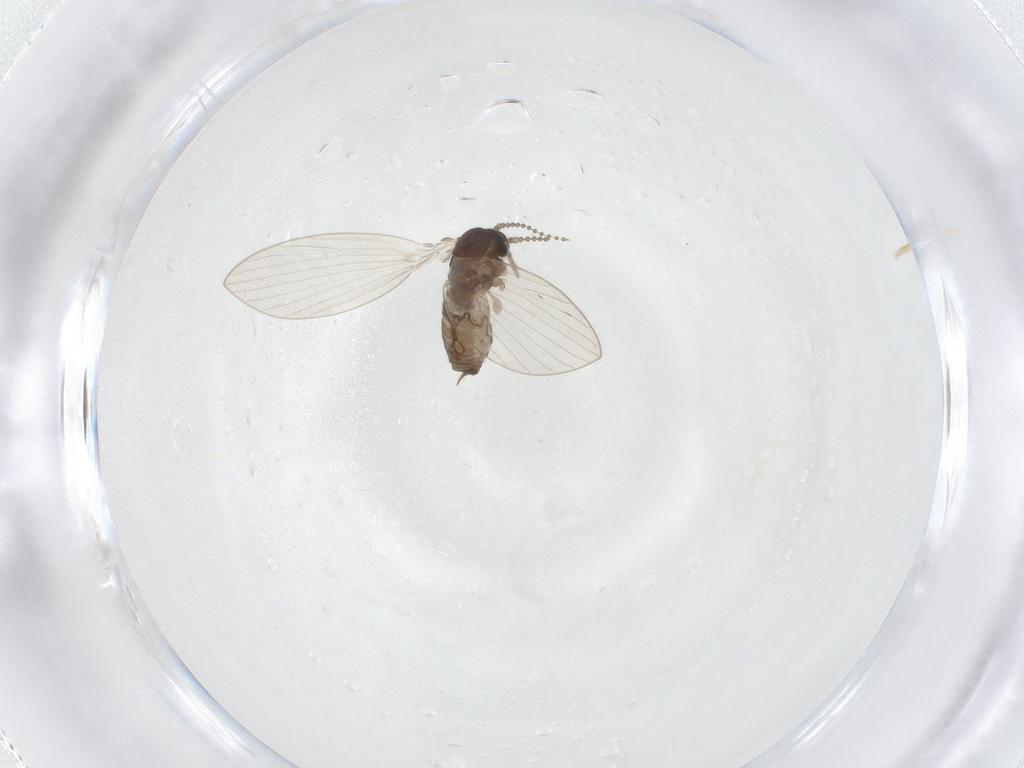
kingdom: Animalia
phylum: Arthropoda
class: Insecta
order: Diptera
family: Psychodidae
